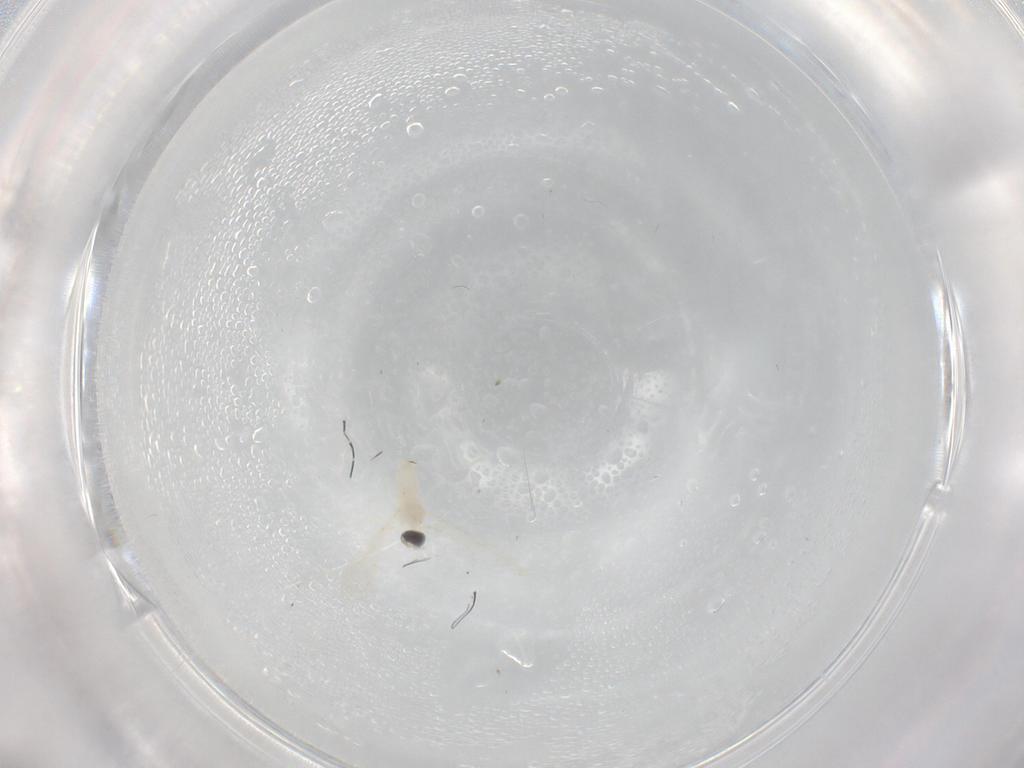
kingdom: Animalia
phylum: Arthropoda
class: Insecta
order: Diptera
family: Cecidomyiidae
